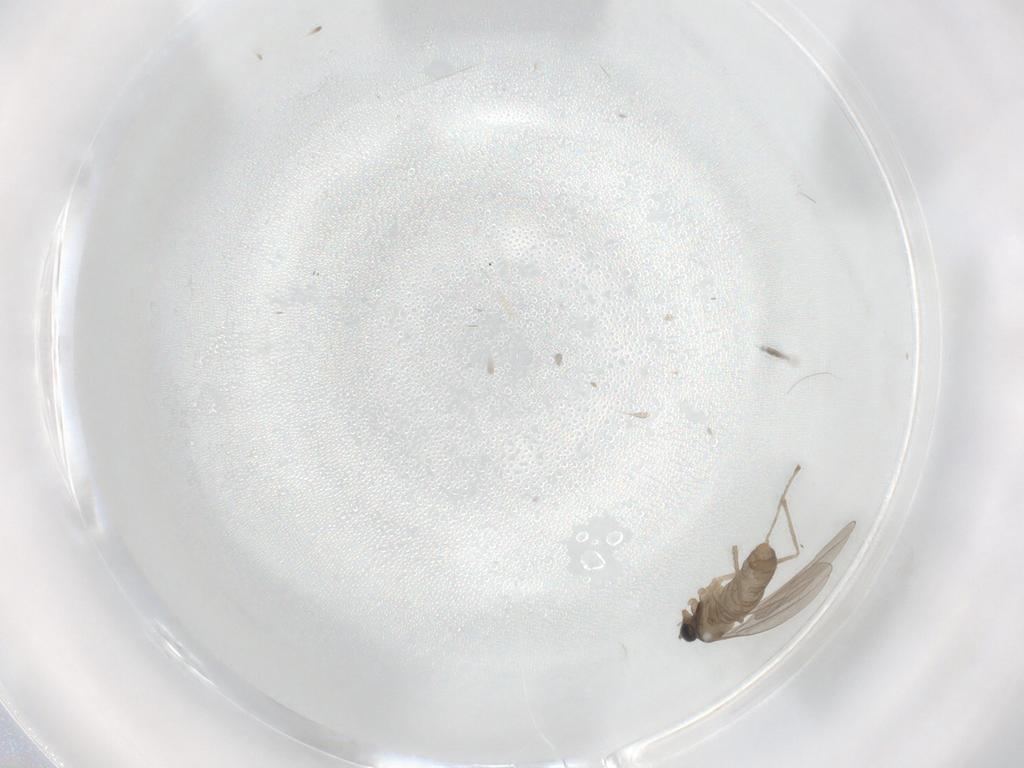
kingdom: Animalia
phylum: Arthropoda
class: Insecta
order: Diptera
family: Cecidomyiidae
